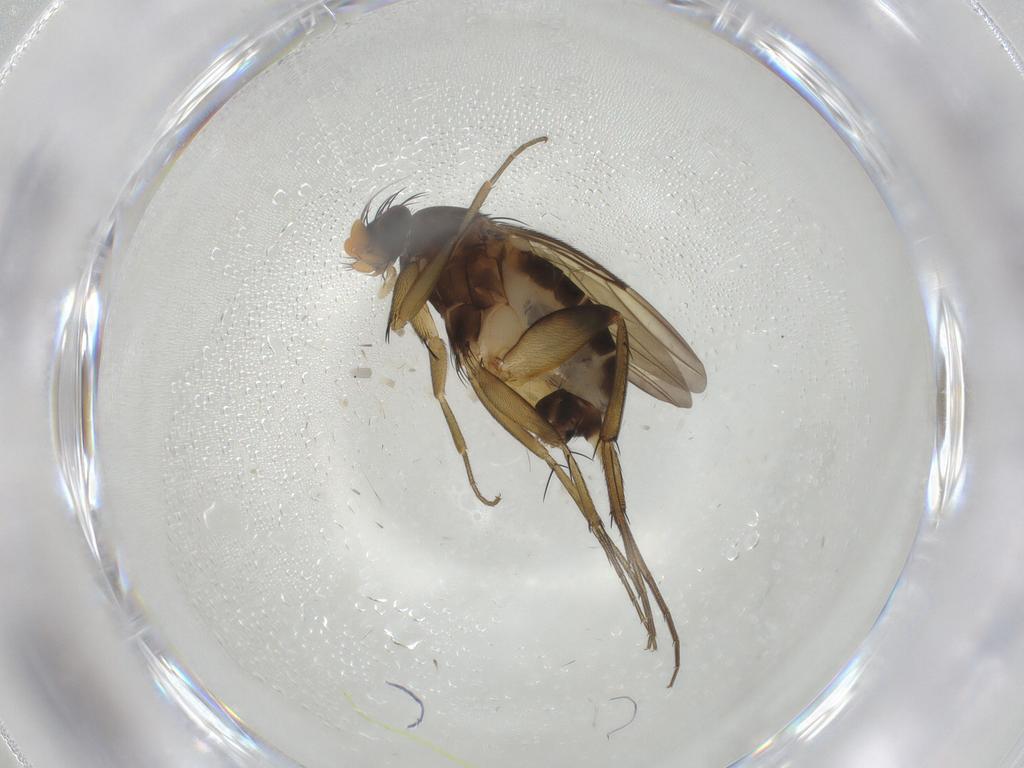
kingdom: Animalia
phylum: Arthropoda
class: Insecta
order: Diptera
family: Phoridae
